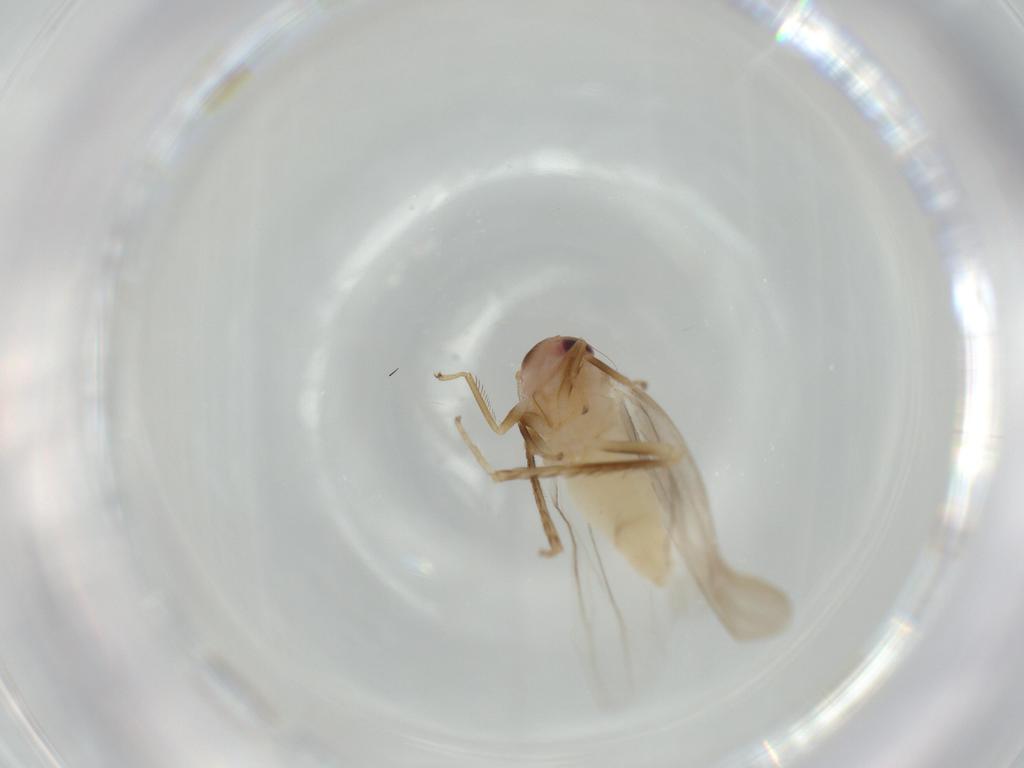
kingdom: Animalia
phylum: Arthropoda
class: Insecta
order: Hemiptera
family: Cicadellidae
